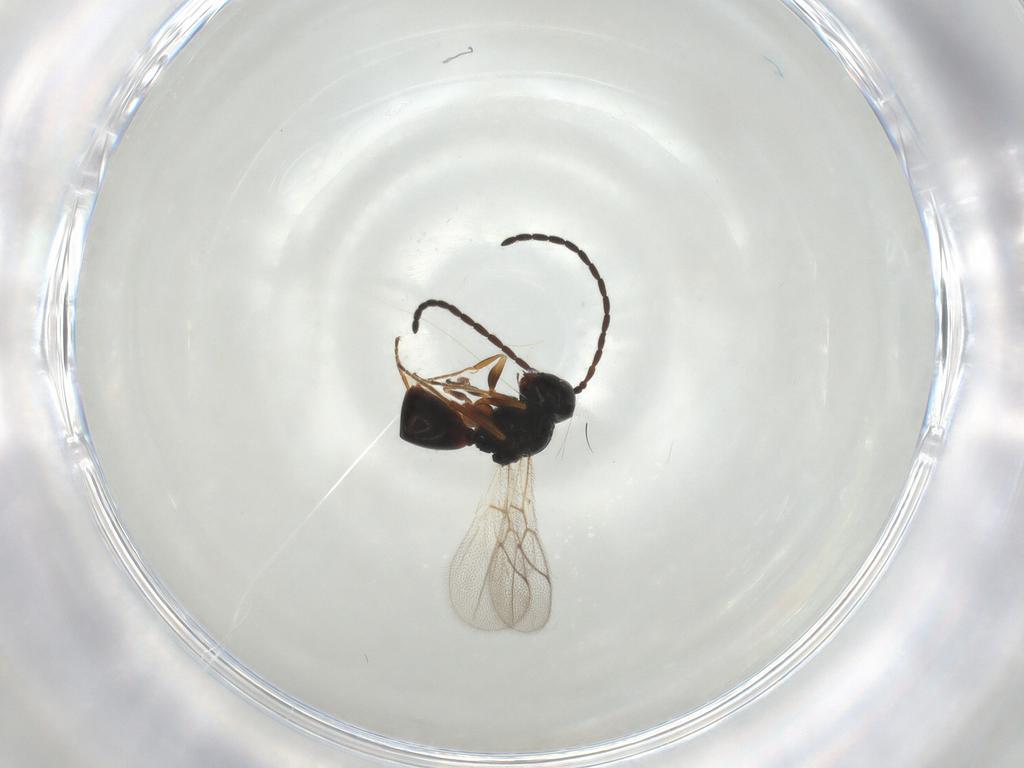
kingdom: Animalia
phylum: Arthropoda
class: Insecta
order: Hymenoptera
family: Figitidae
